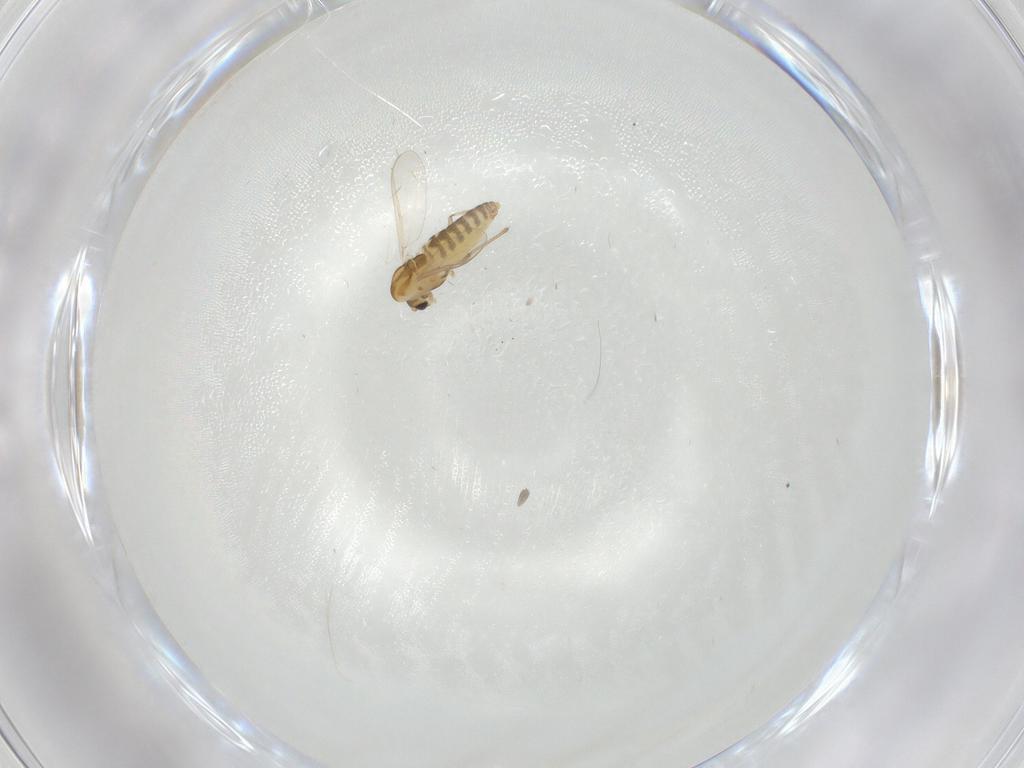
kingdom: Animalia
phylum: Arthropoda
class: Insecta
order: Diptera
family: Chironomidae
